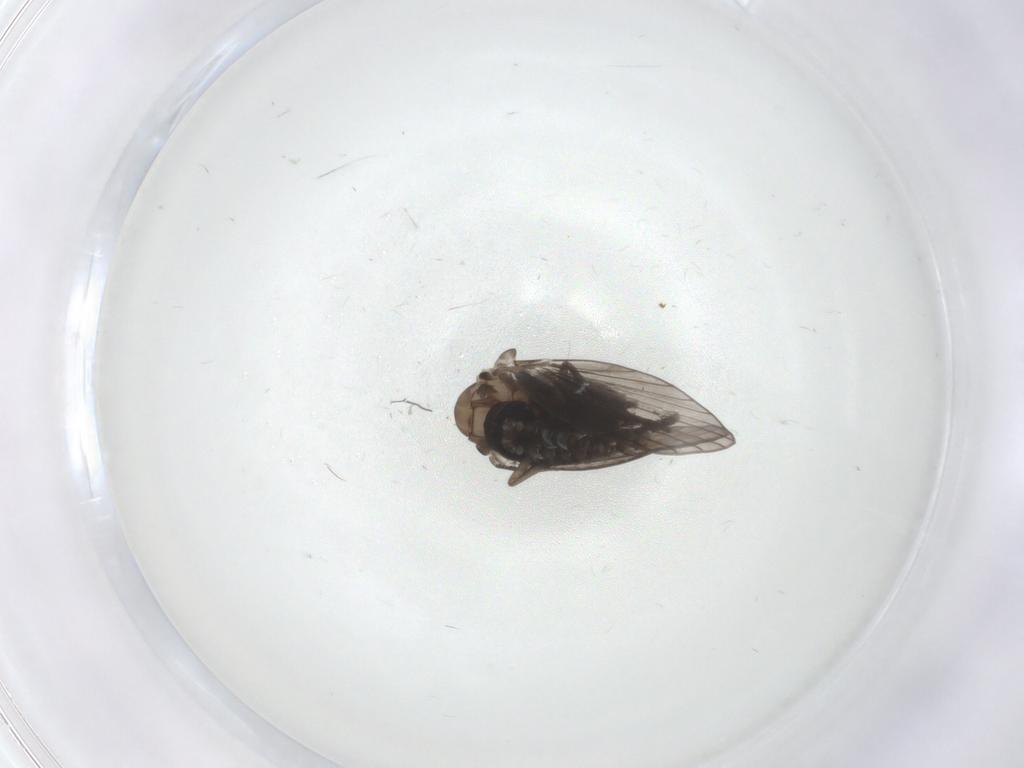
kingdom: Animalia
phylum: Arthropoda
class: Insecta
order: Diptera
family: Psychodidae
